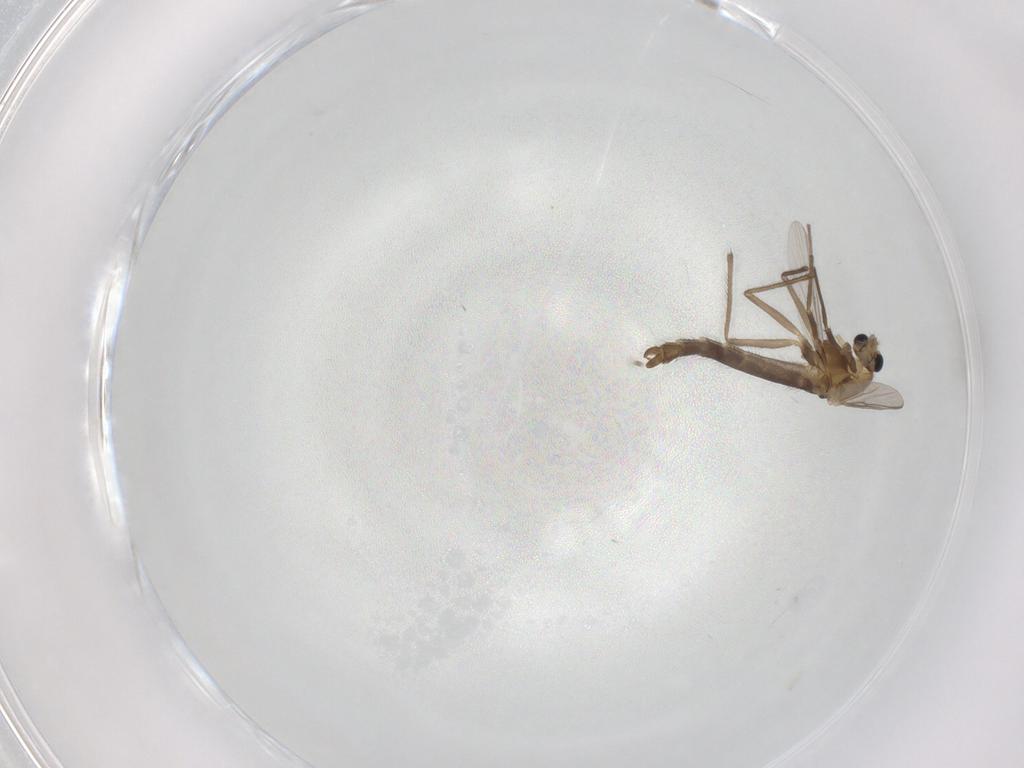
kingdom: Animalia
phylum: Arthropoda
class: Insecta
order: Diptera
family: Chironomidae
